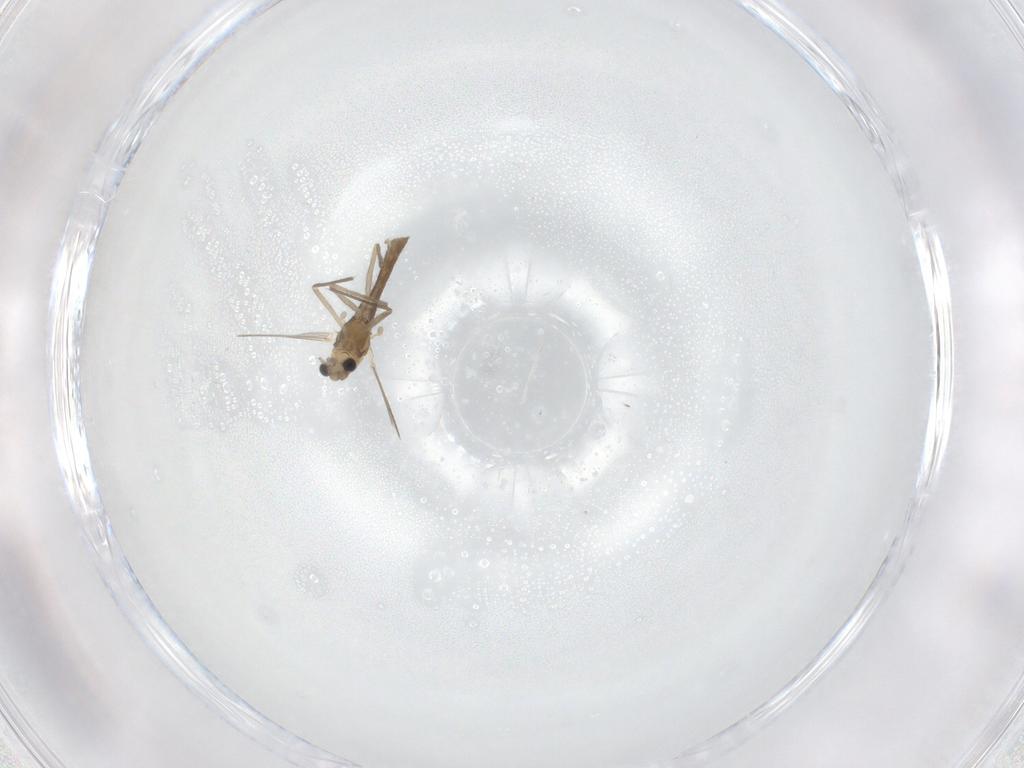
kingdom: Animalia
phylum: Arthropoda
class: Insecta
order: Diptera
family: Chironomidae
